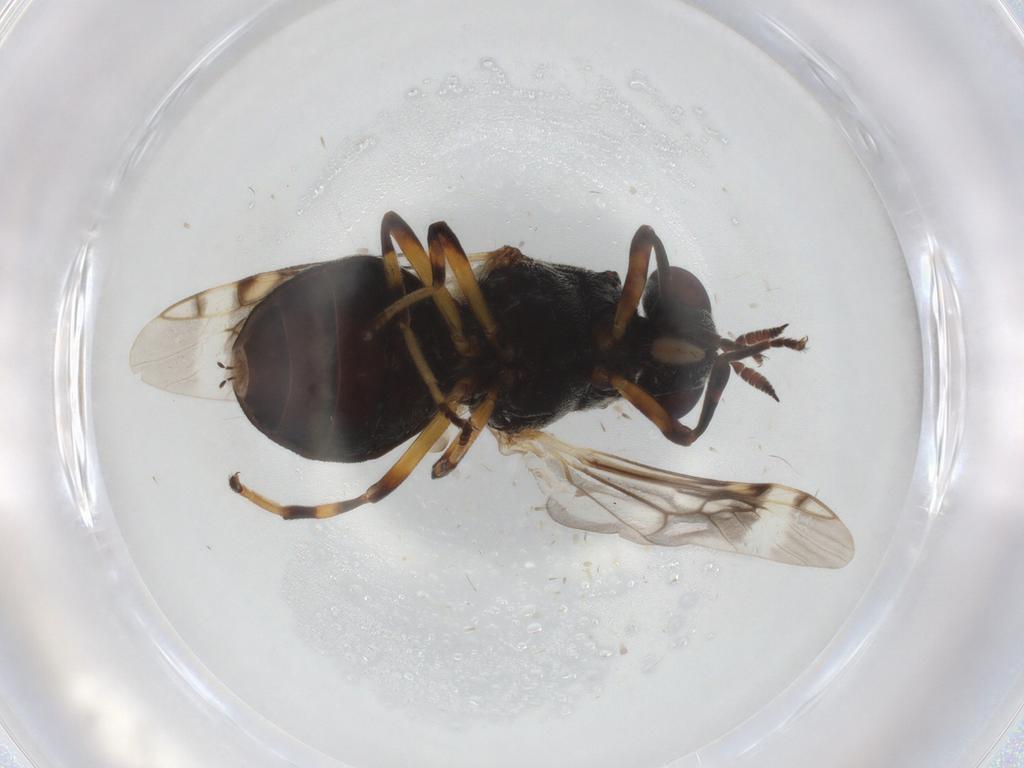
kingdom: Animalia
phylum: Arthropoda
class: Insecta
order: Diptera
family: Stratiomyidae
